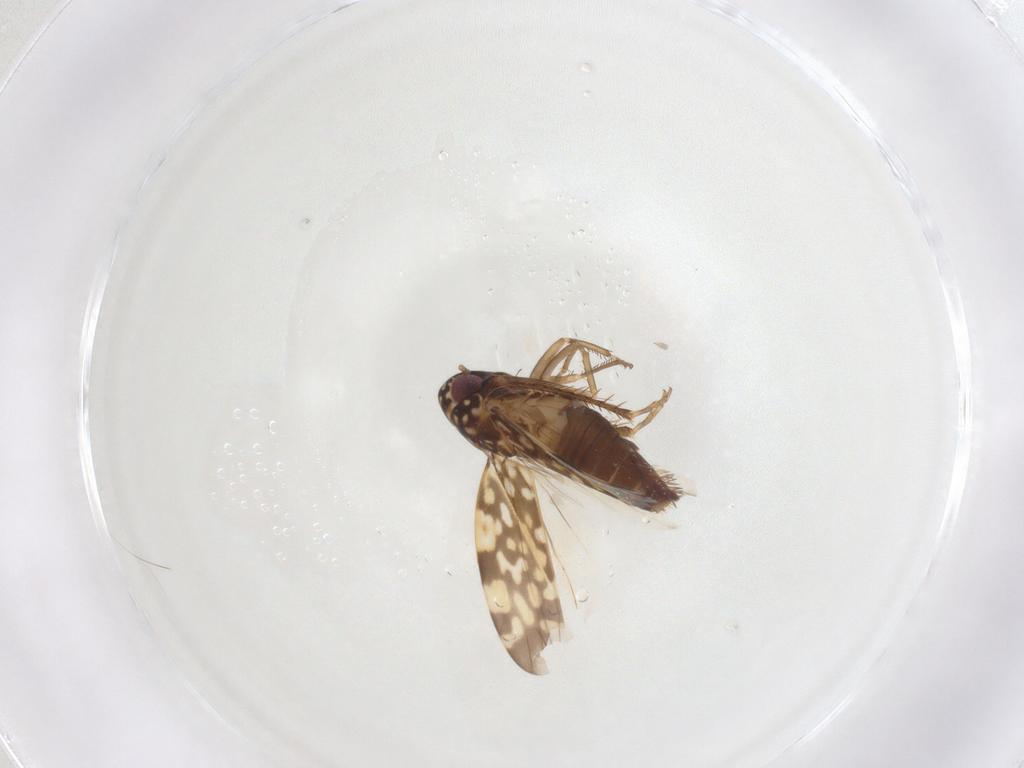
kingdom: Animalia
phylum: Arthropoda
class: Insecta
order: Hemiptera
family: Cicadellidae
